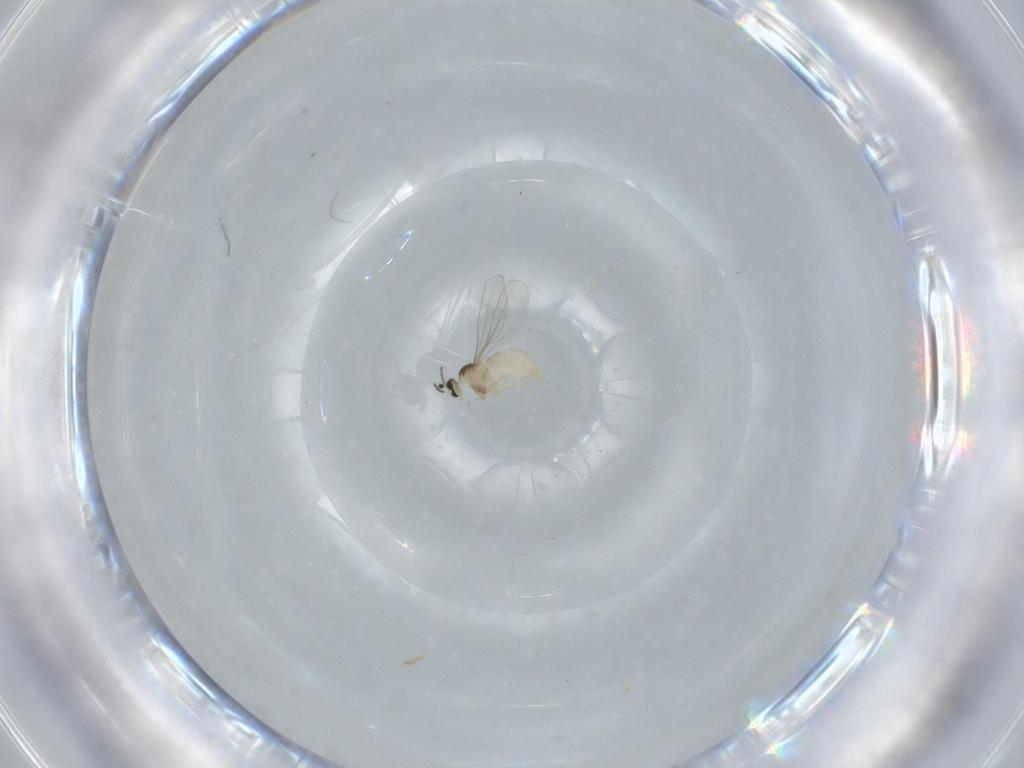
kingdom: Animalia
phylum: Arthropoda
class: Insecta
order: Diptera
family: Cecidomyiidae
